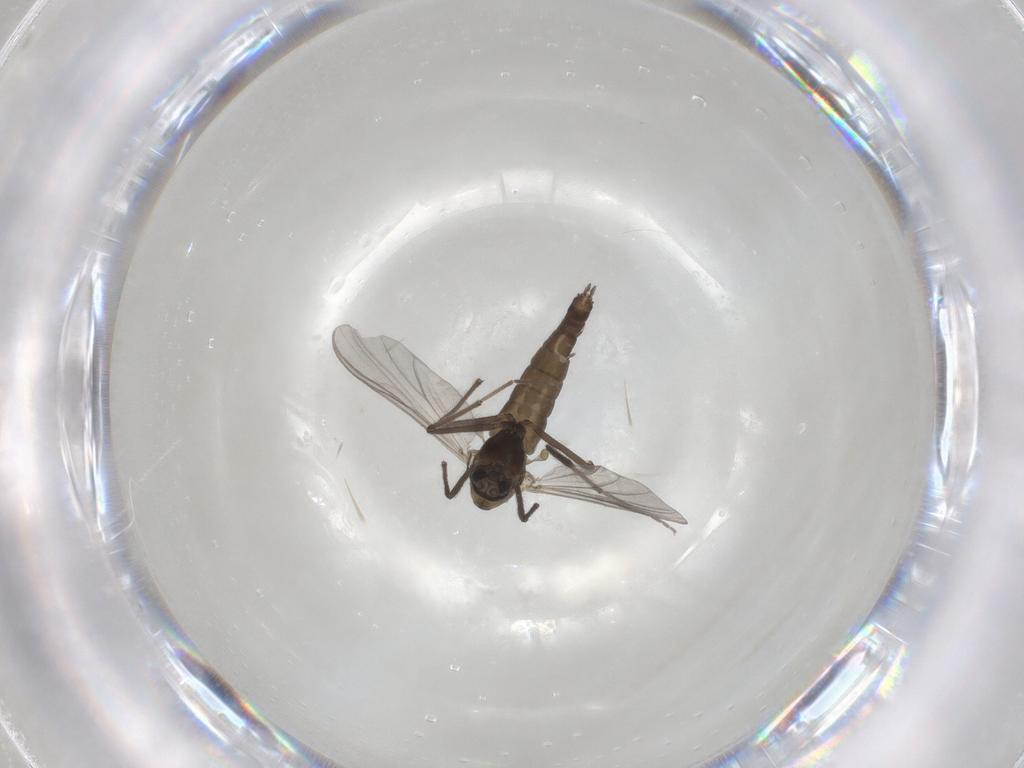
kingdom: Animalia
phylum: Arthropoda
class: Insecta
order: Diptera
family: Chironomidae
